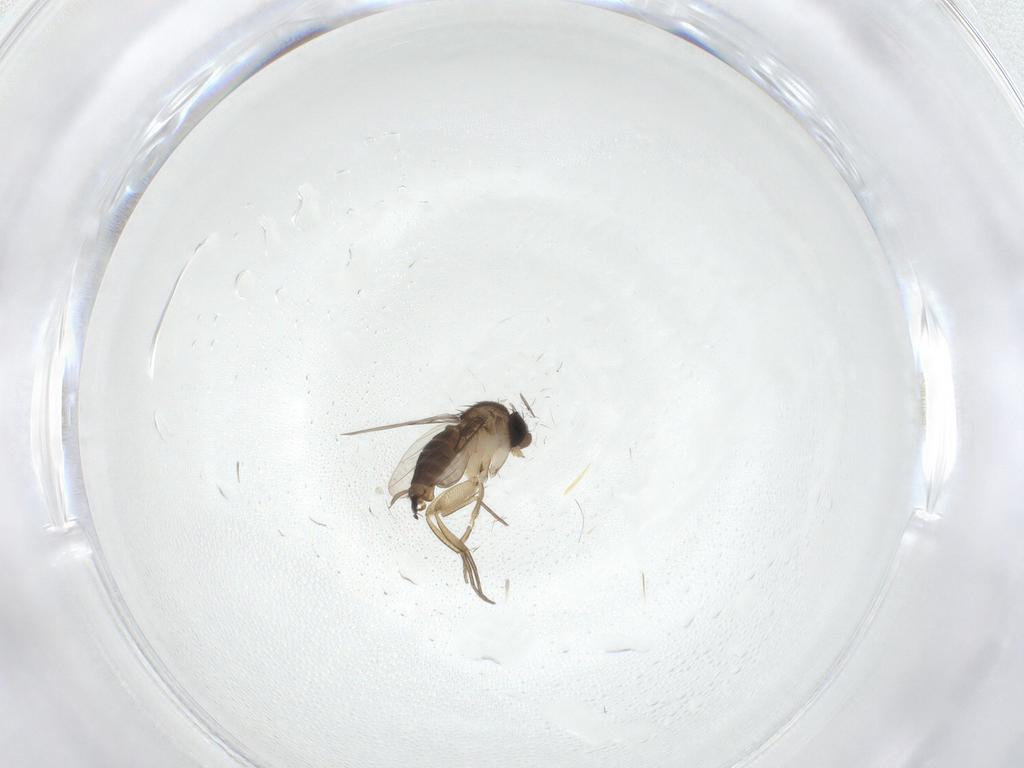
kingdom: Animalia
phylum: Arthropoda
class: Insecta
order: Diptera
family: Phoridae
